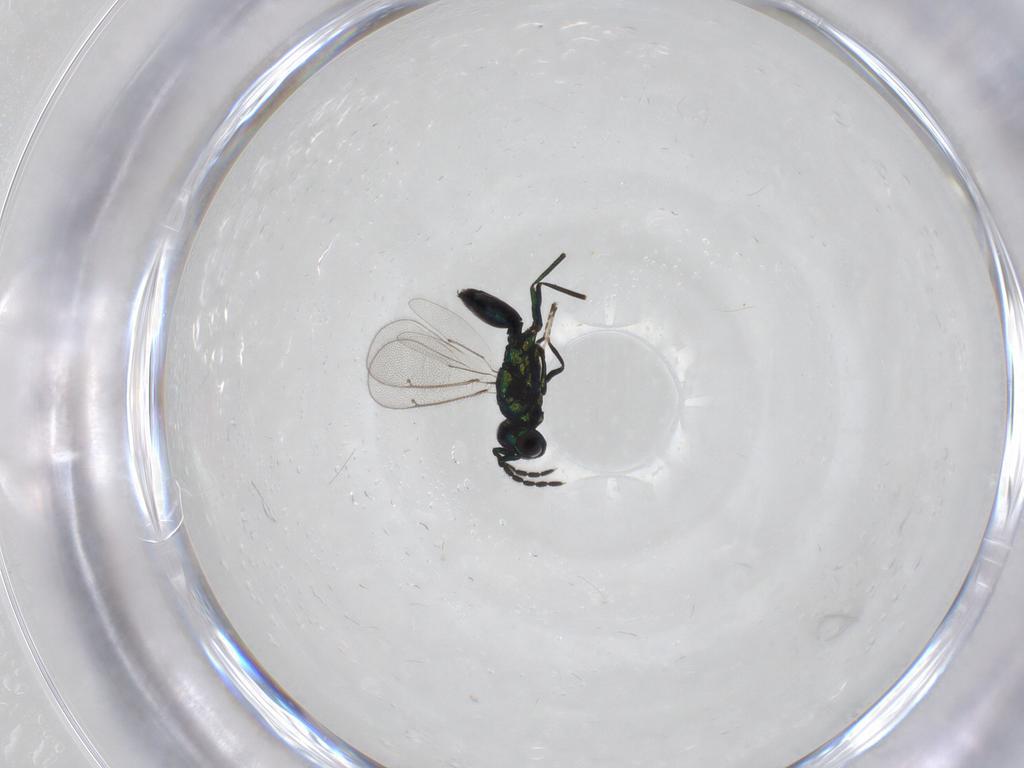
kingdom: Animalia
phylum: Arthropoda
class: Insecta
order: Hymenoptera
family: Eulophidae
